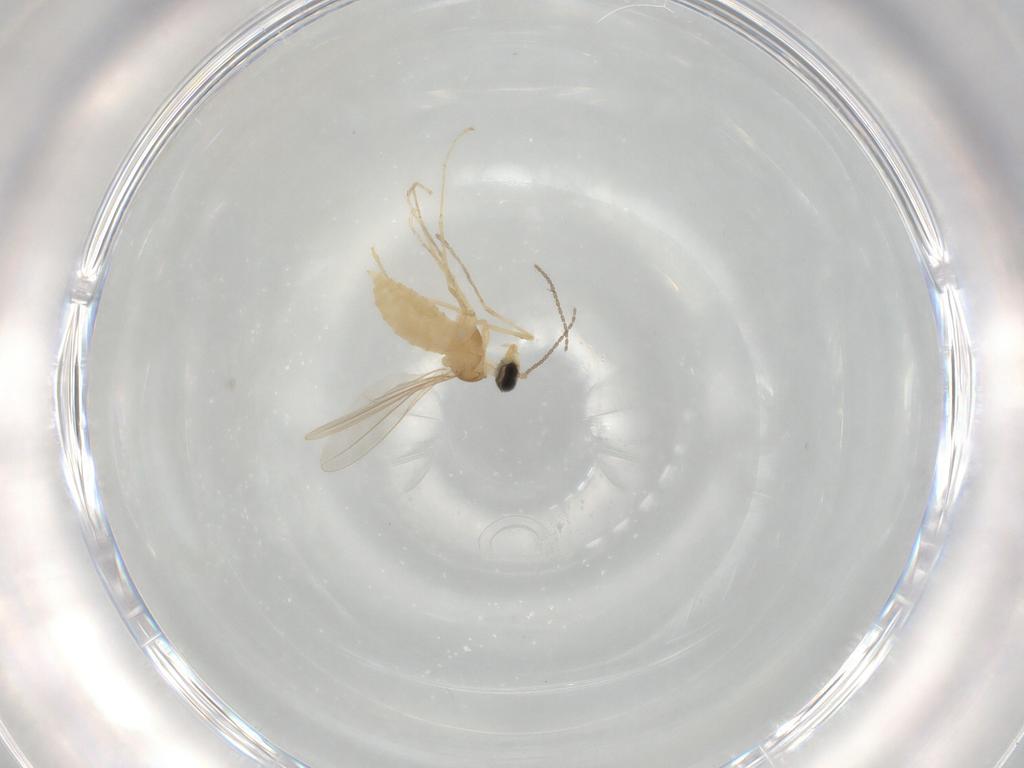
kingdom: Animalia
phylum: Arthropoda
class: Insecta
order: Diptera
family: Cecidomyiidae
